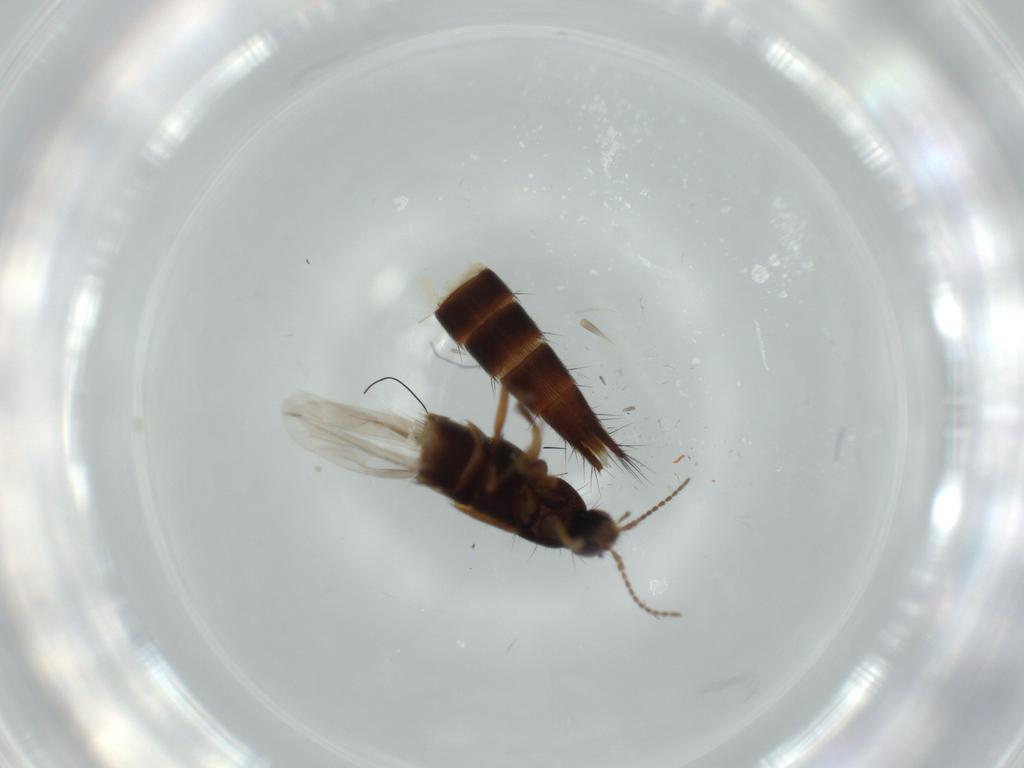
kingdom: Animalia
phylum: Arthropoda
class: Insecta
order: Coleoptera
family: Staphylinidae
